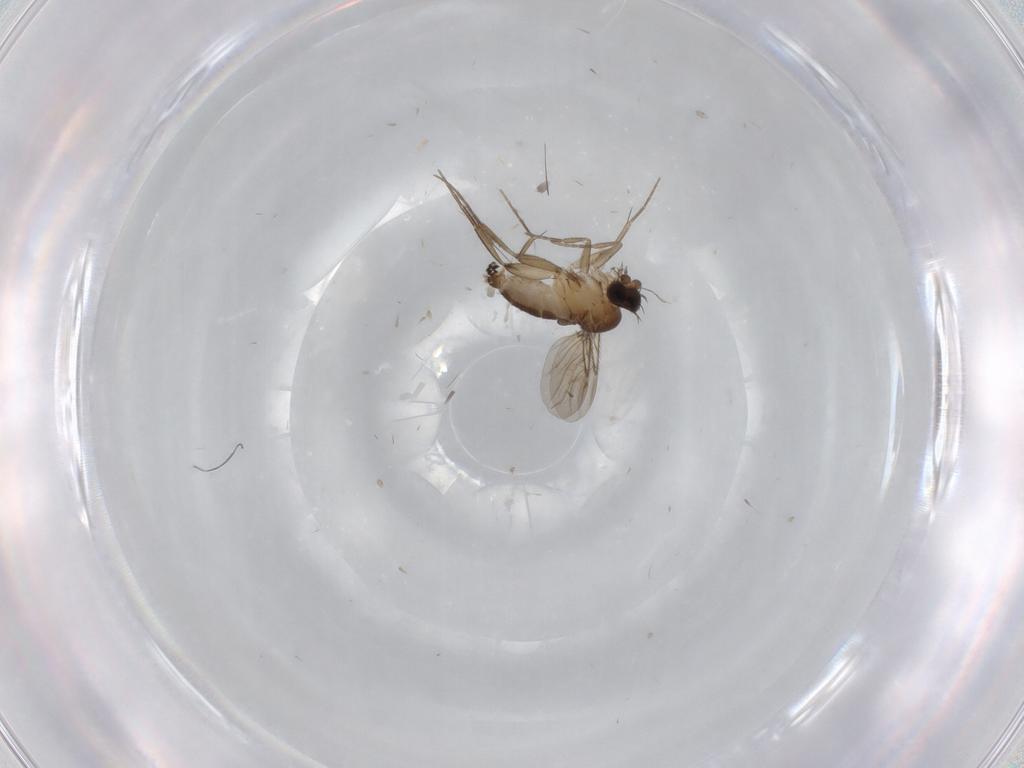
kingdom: Animalia
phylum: Arthropoda
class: Insecta
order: Diptera
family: Phoridae
